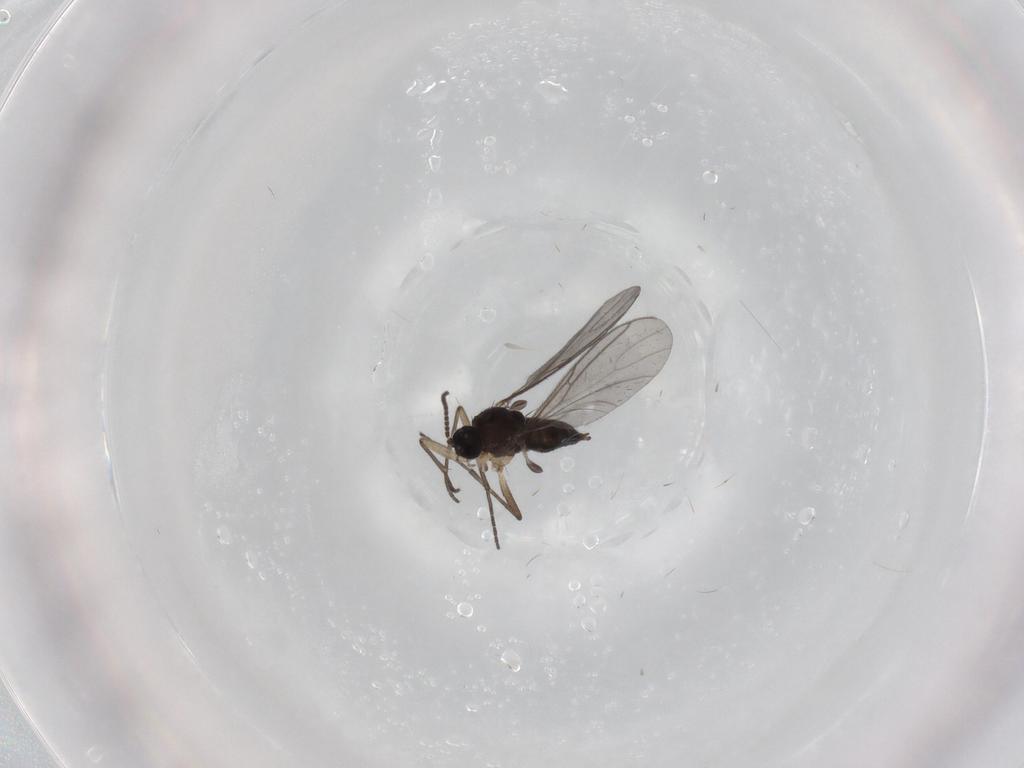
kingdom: Animalia
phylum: Arthropoda
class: Insecta
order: Diptera
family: Sciaridae
